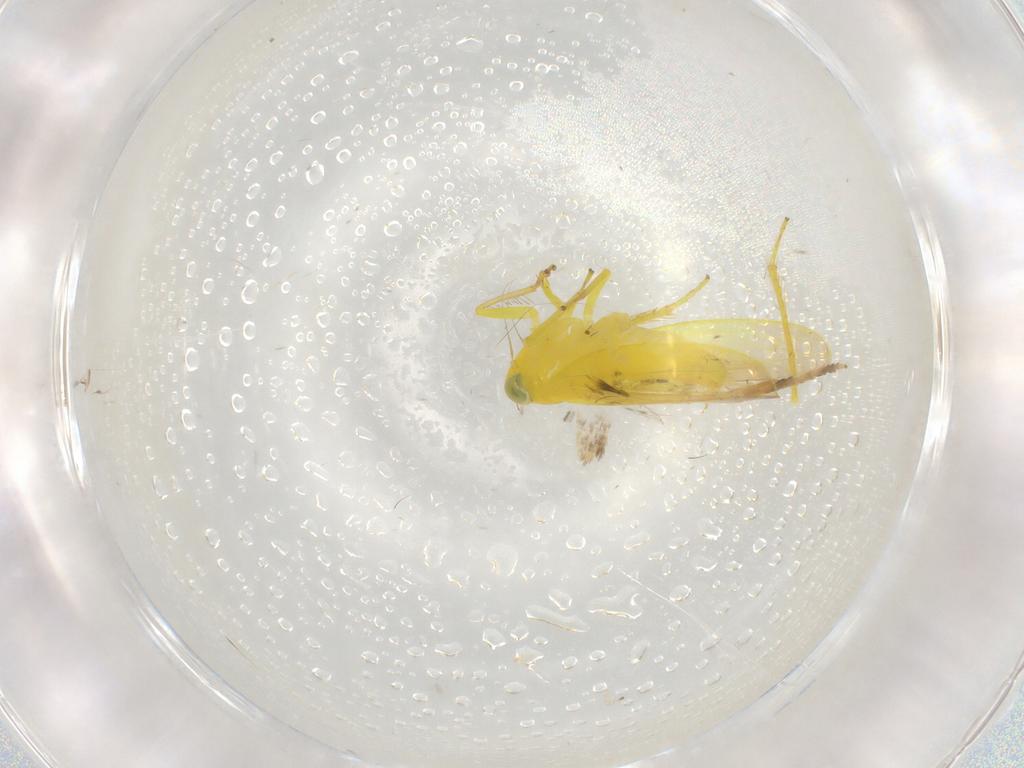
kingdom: Animalia
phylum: Arthropoda
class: Insecta
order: Hemiptera
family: Cicadellidae
